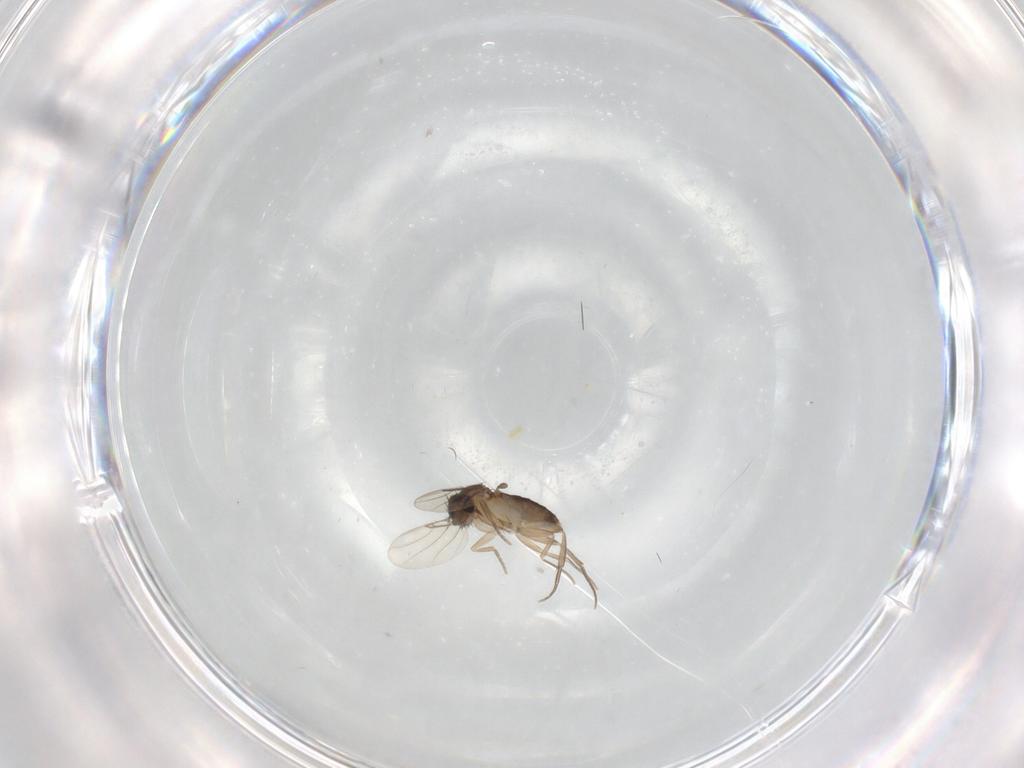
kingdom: Animalia
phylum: Arthropoda
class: Insecta
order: Diptera
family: Phoridae
